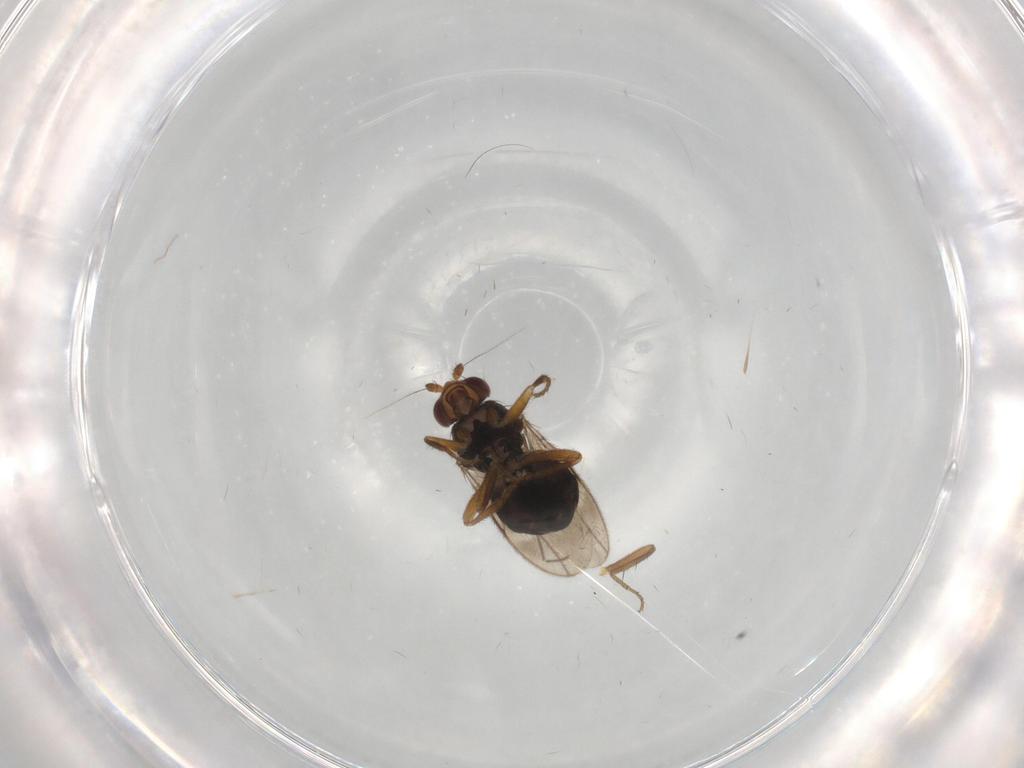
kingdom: Animalia
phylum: Arthropoda
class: Insecta
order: Diptera
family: Sphaeroceridae
